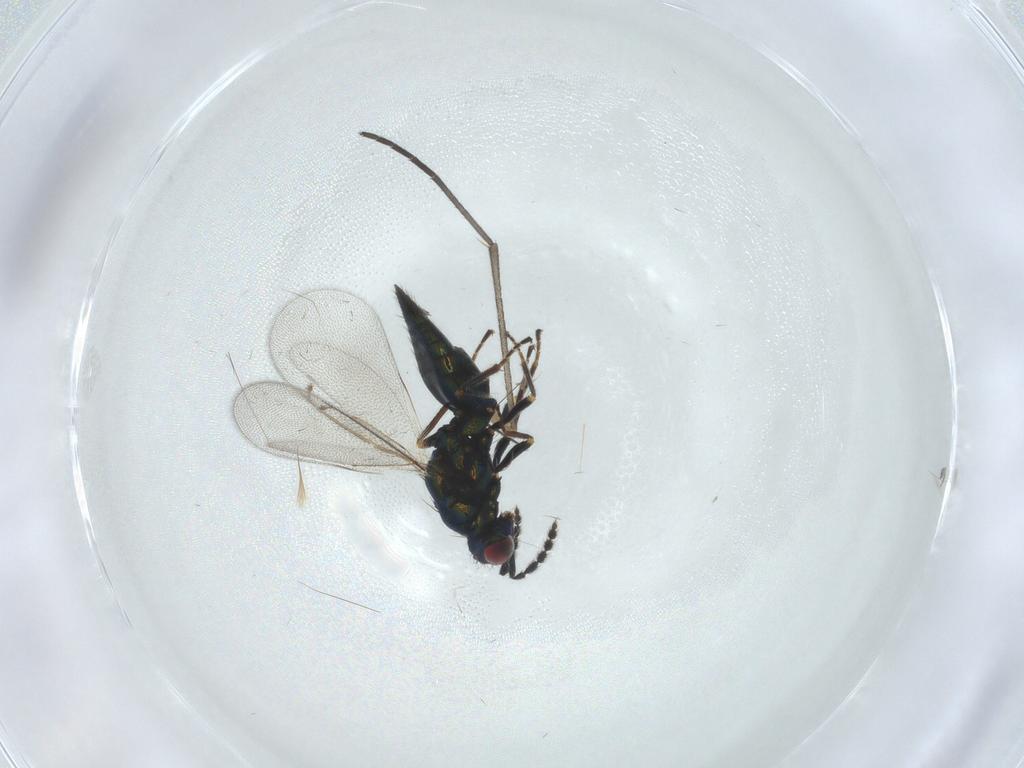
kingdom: Animalia
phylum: Arthropoda
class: Insecta
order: Hymenoptera
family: Eulophidae
